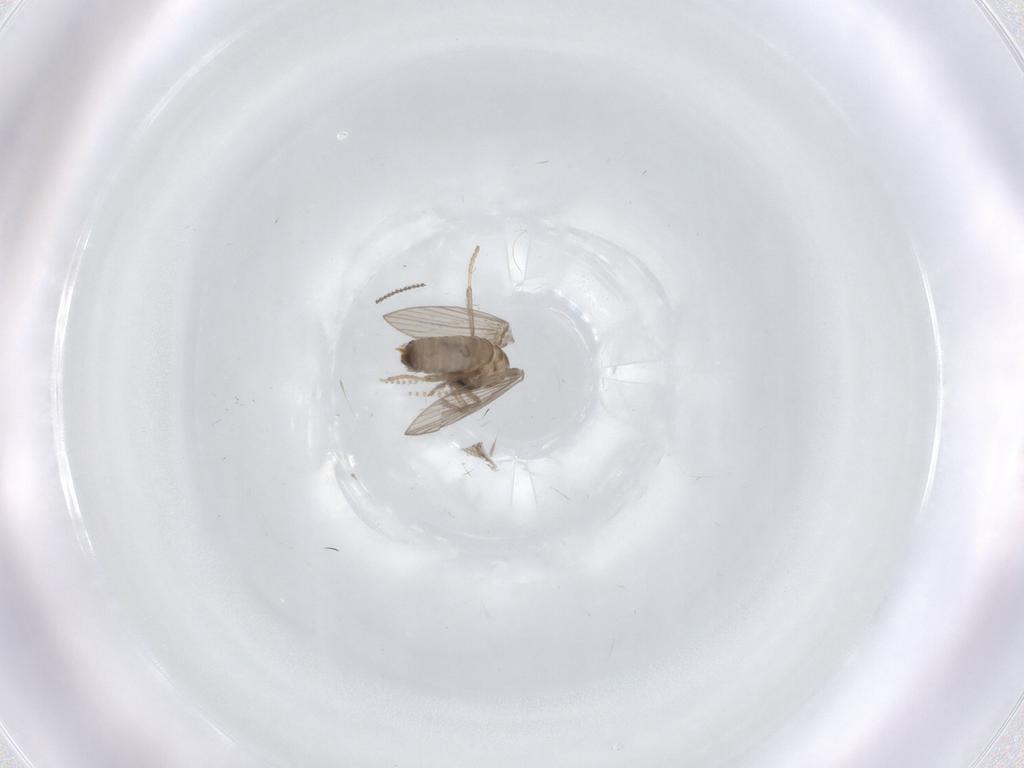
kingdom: Animalia
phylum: Arthropoda
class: Insecta
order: Diptera
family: Psychodidae
